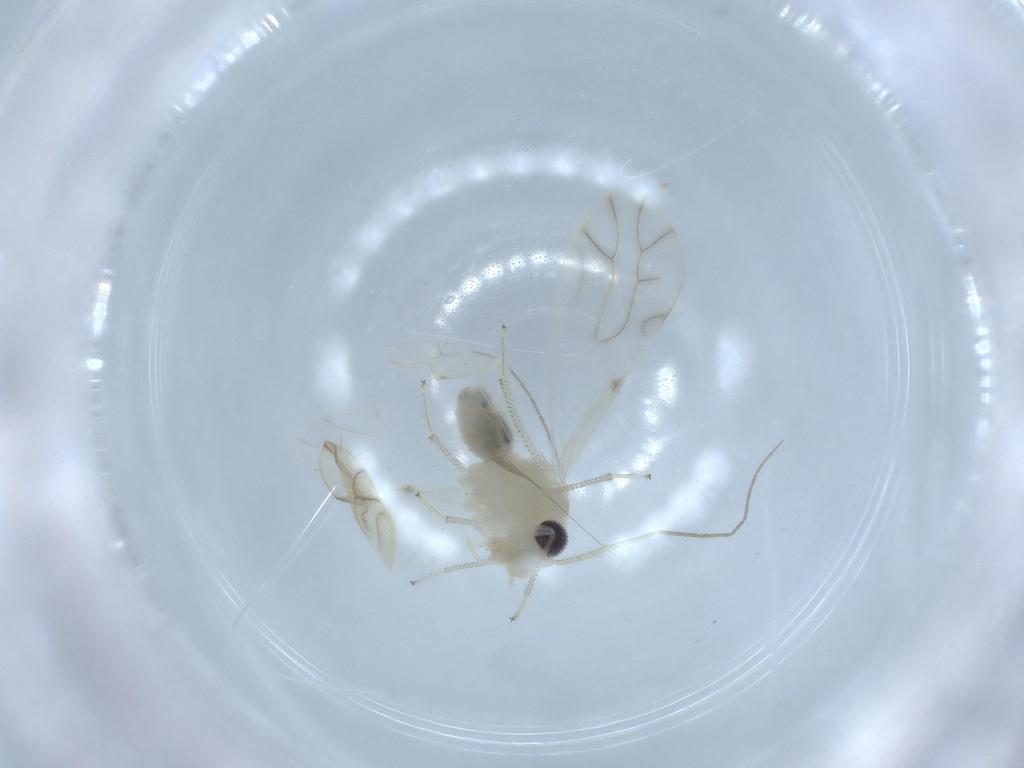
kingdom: Animalia
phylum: Arthropoda
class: Insecta
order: Psocodea
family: Caeciliusidae
